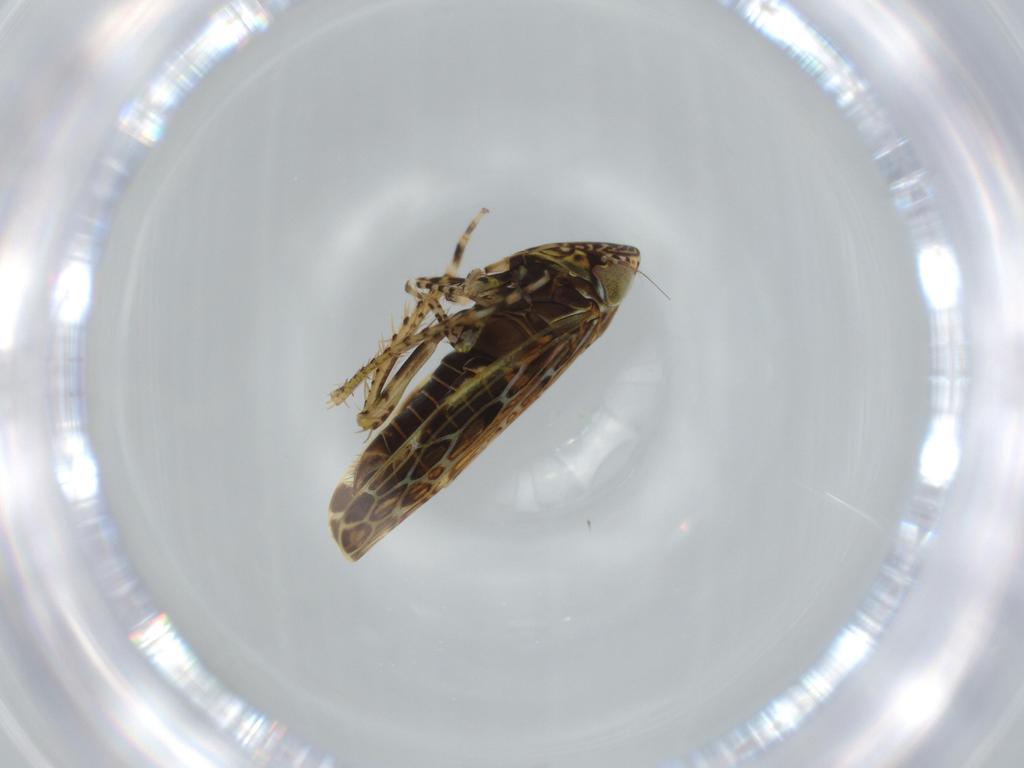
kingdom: Animalia
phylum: Arthropoda
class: Insecta
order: Hemiptera
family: Cicadellidae
